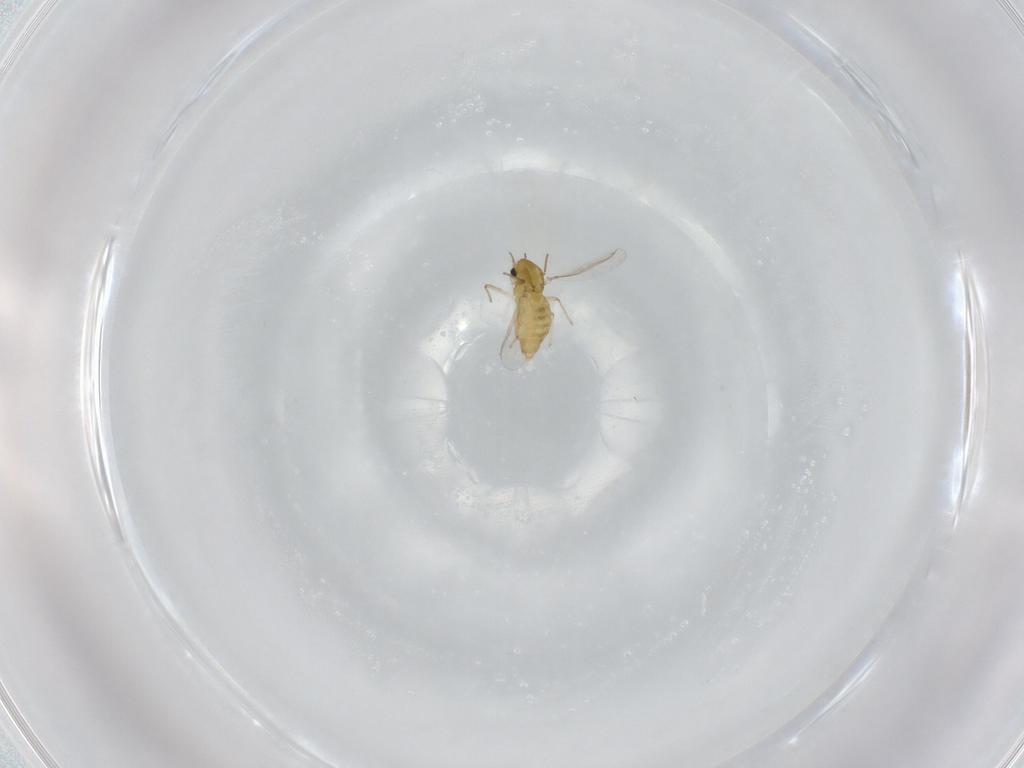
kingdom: Animalia
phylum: Arthropoda
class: Insecta
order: Diptera
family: Chironomidae
